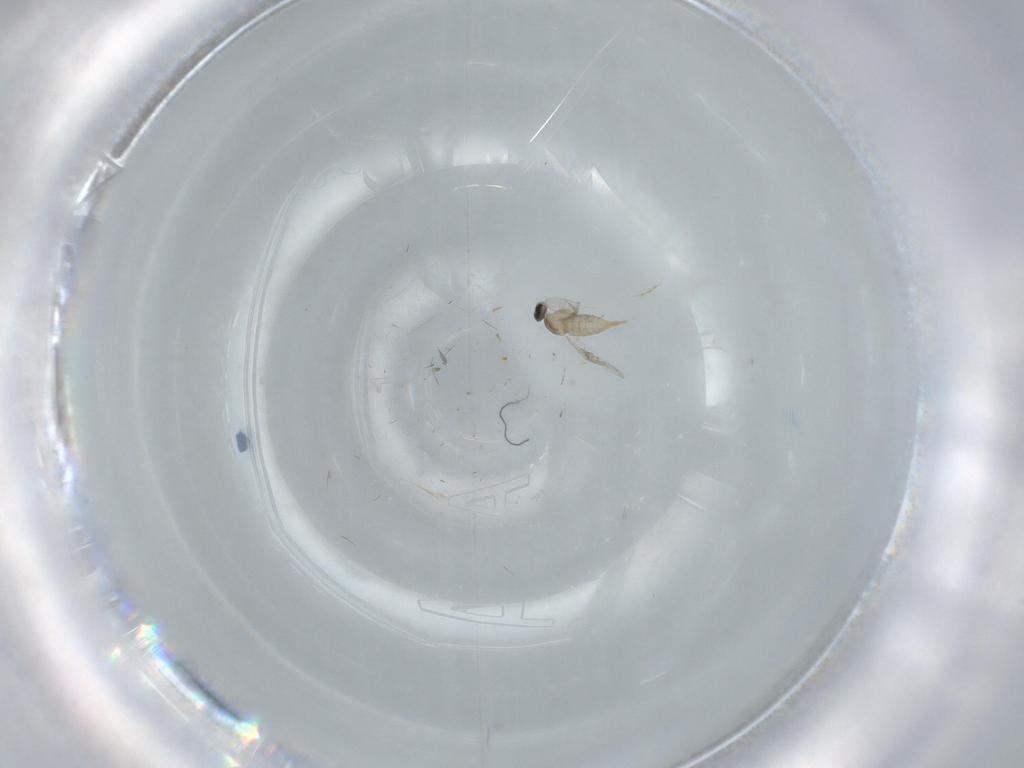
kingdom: Animalia
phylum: Arthropoda
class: Insecta
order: Diptera
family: Cecidomyiidae
